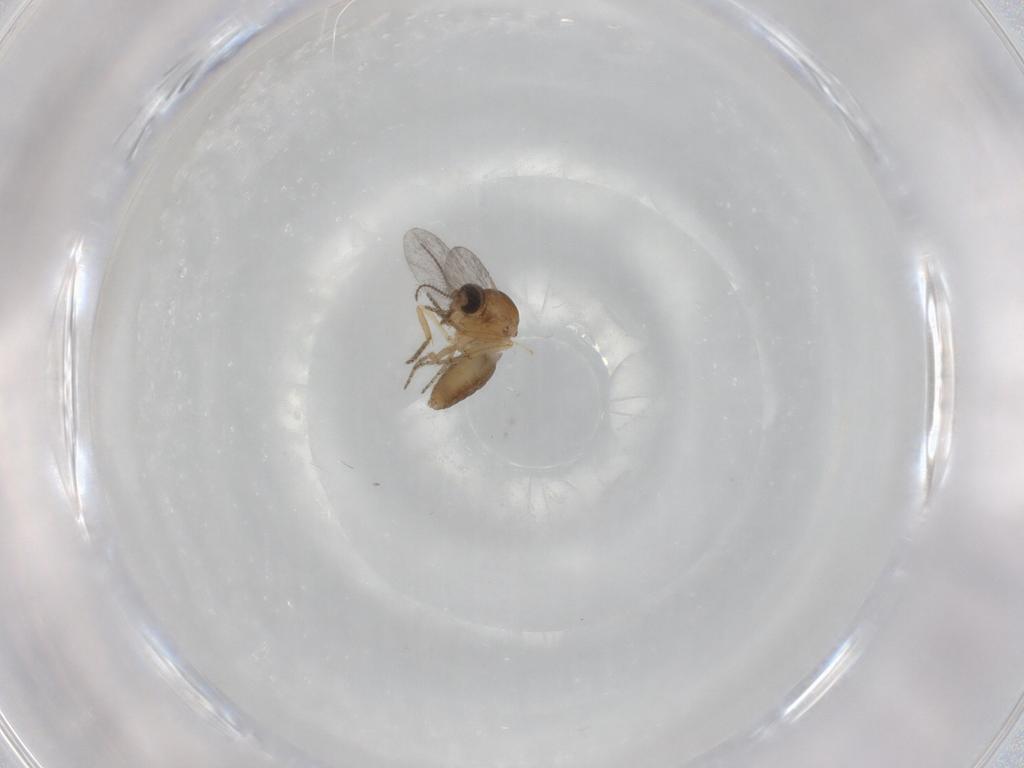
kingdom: Animalia
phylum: Arthropoda
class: Insecta
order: Diptera
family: Ceratopogonidae
